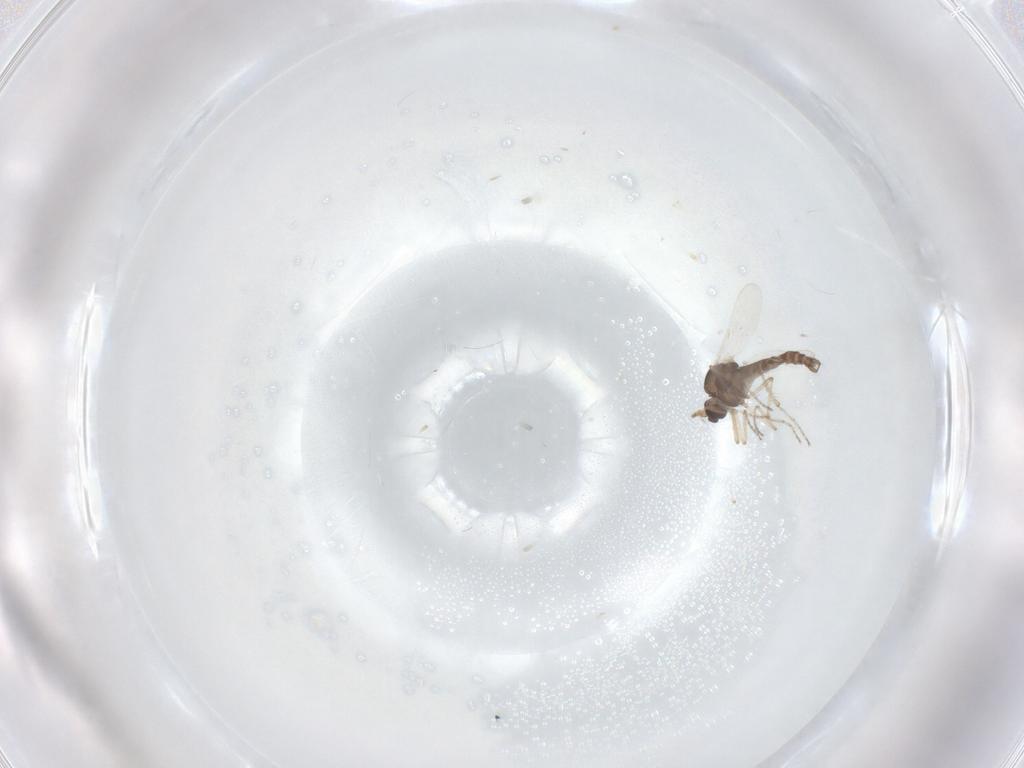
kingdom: Animalia
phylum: Arthropoda
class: Insecta
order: Diptera
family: Ceratopogonidae
